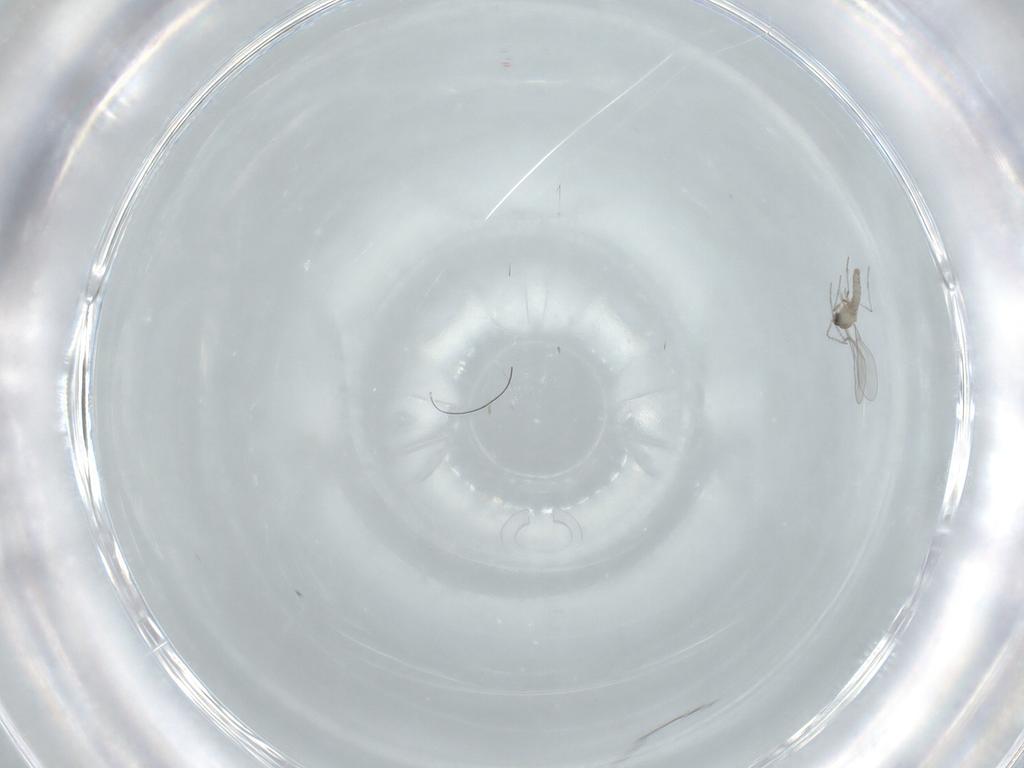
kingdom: Animalia
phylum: Arthropoda
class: Insecta
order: Diptera
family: Cecidomyiidae
